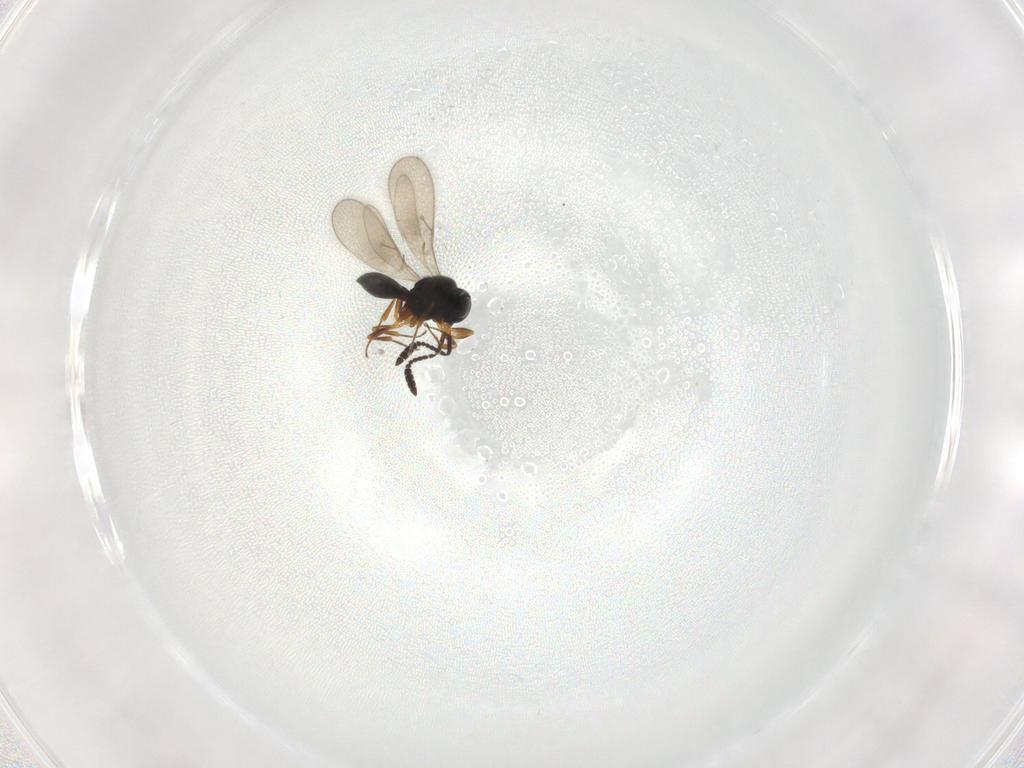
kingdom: Animalia
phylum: Arthropoda
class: Insecta
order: Hymenoptera
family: Scelionidae
